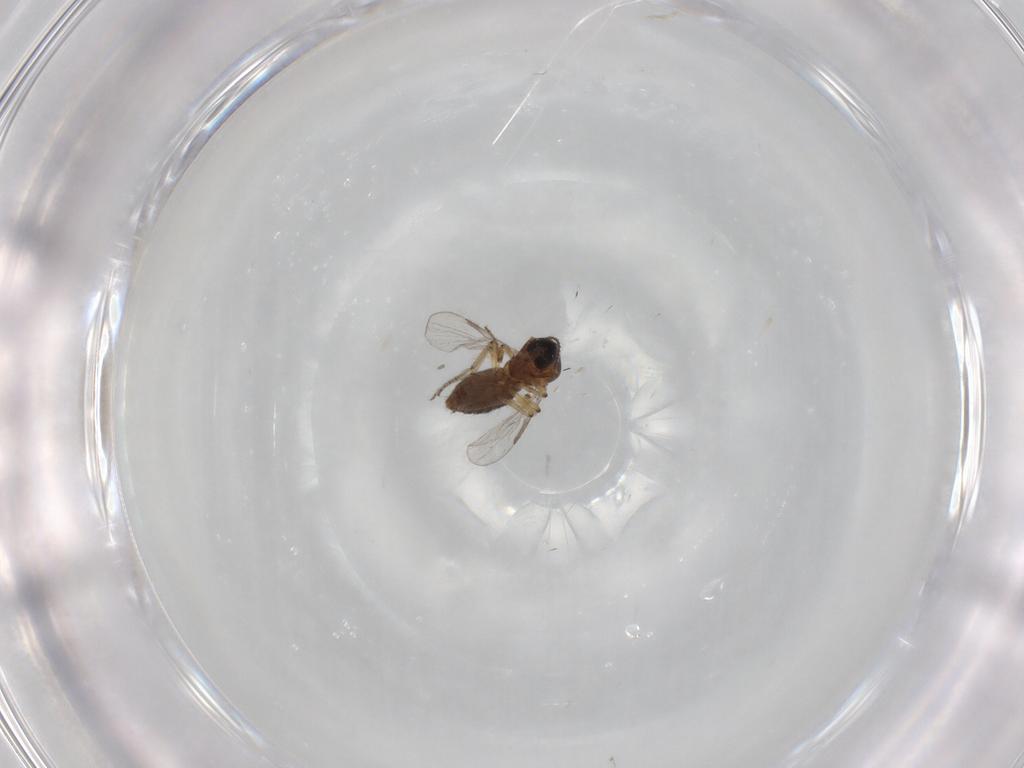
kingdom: Animalia
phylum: Arthropoda
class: Insecta
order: Diptera
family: Ceratopogonidae
